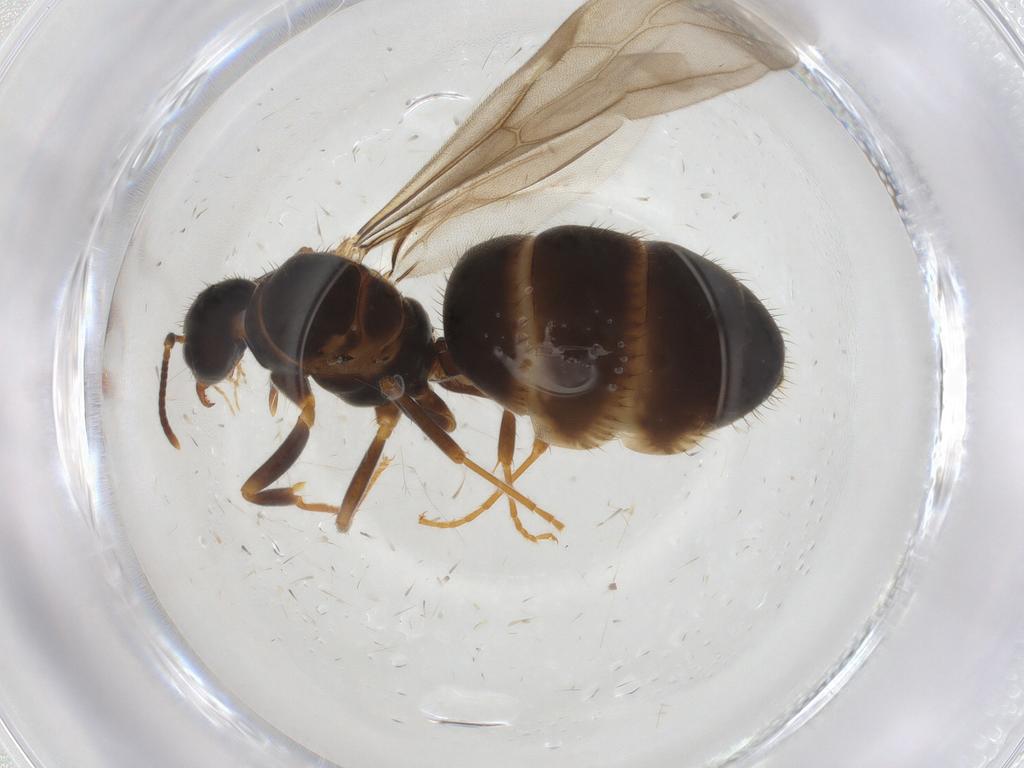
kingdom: Animalia
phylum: Arthropoda
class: Insecta
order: Hymenoptera
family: Formicidae
